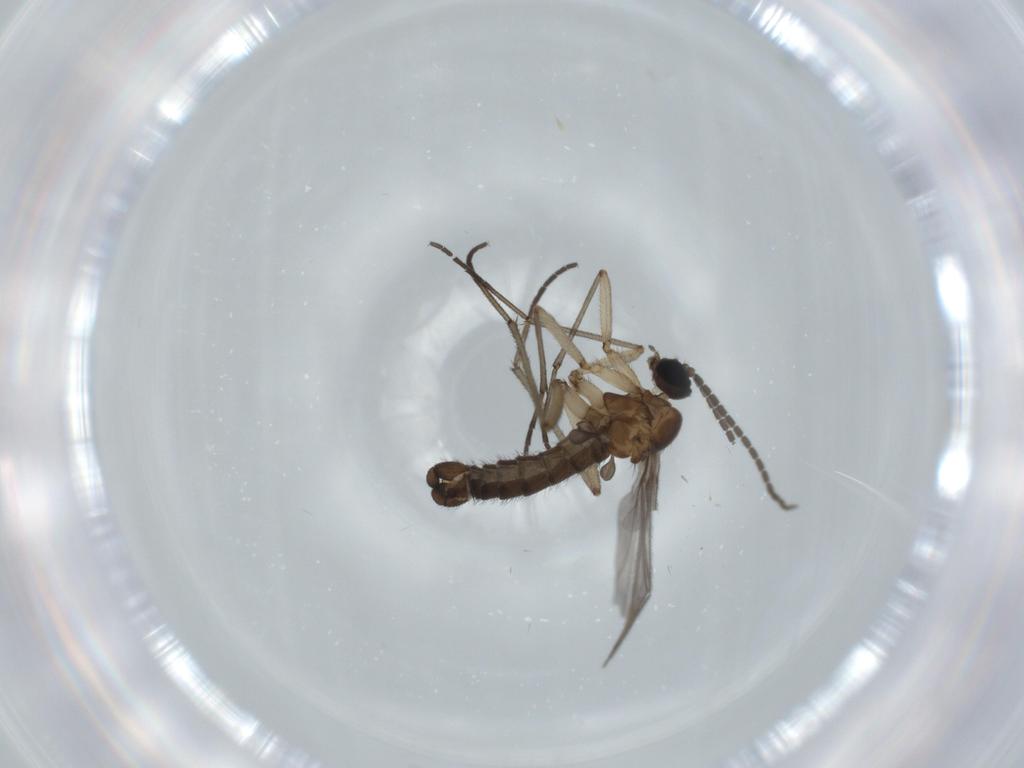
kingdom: Animalia
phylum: Arthropoda
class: Insecta
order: Diptera
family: Sciaridae
